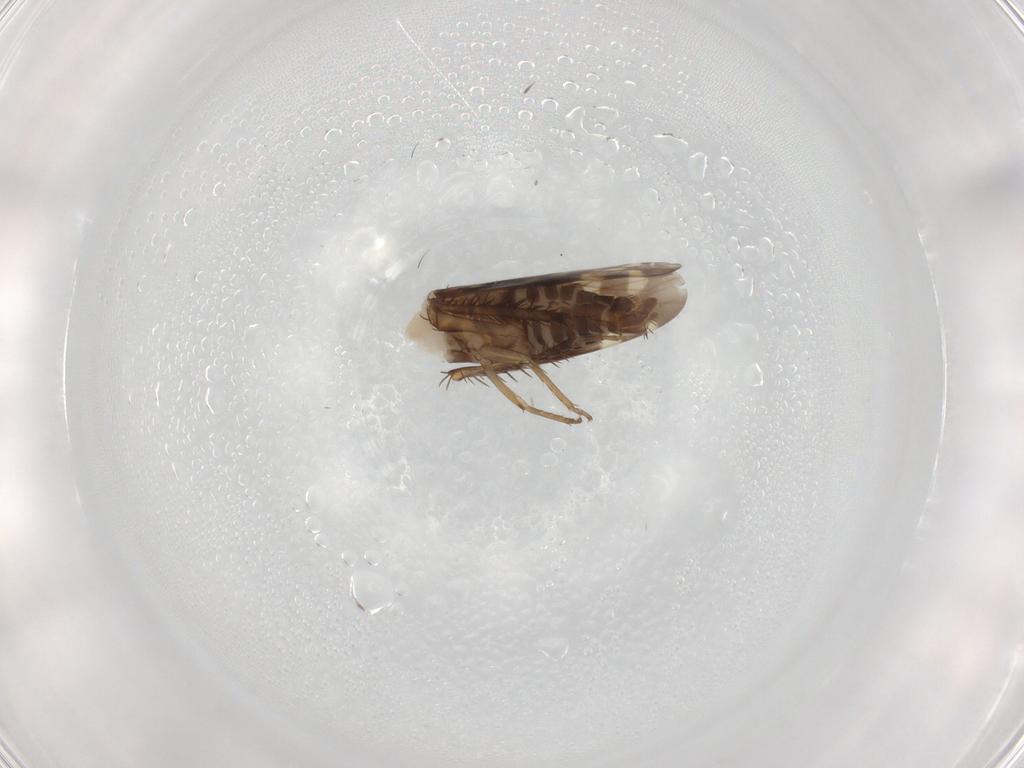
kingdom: Animalia
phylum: Arthropoda
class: Insecta
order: Hemiptera
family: Cicadellidae
